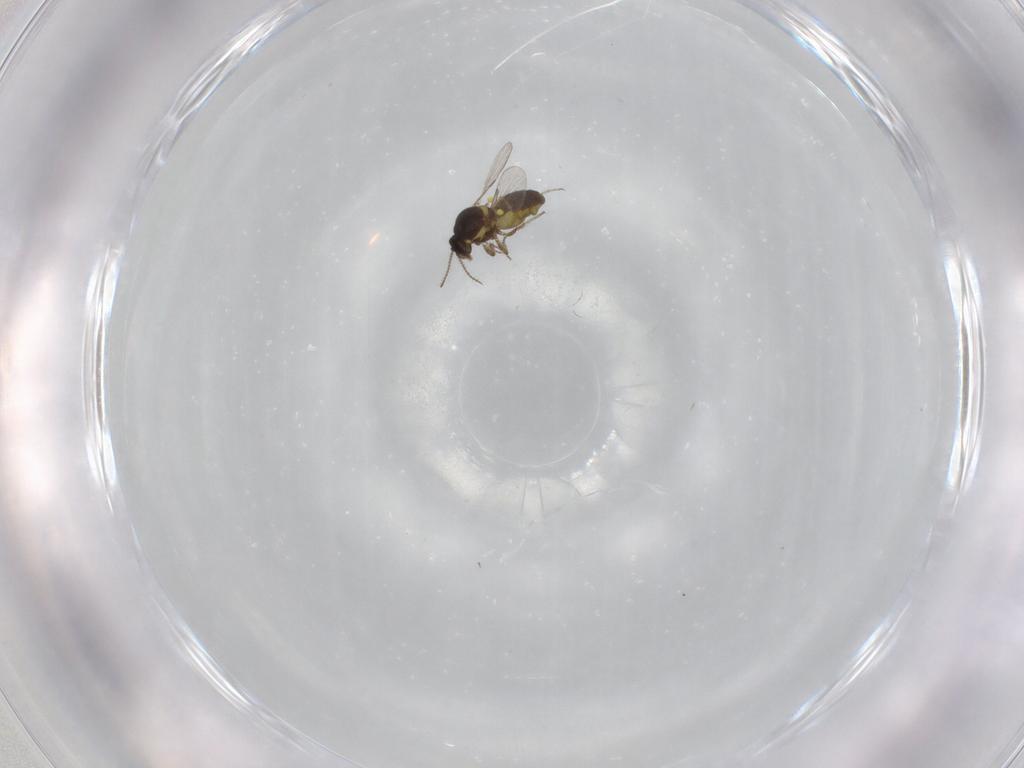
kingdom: Animalia
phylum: Arthropoda
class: Insecta
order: Diptera
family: Ceratopogonidae
